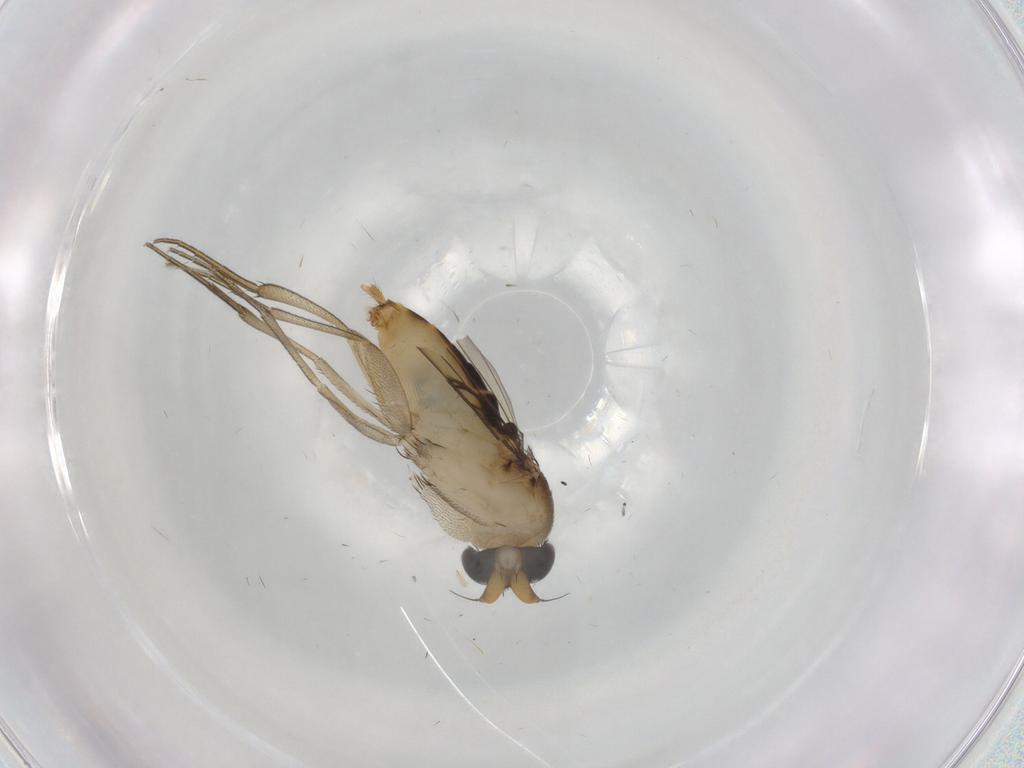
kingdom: Animalia
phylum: Arthropoda
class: Insecta
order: Diptera
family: Phoridae
